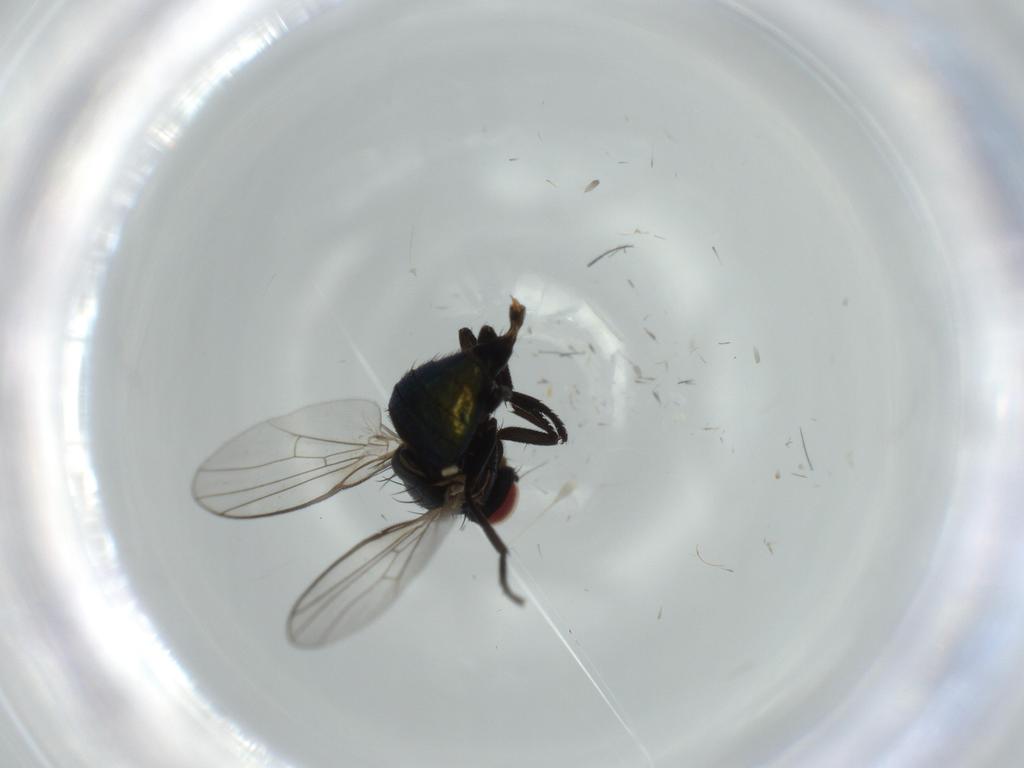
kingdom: Animalia
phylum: Arthropoda
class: Insecta
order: Diptera
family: Agromyzidae
